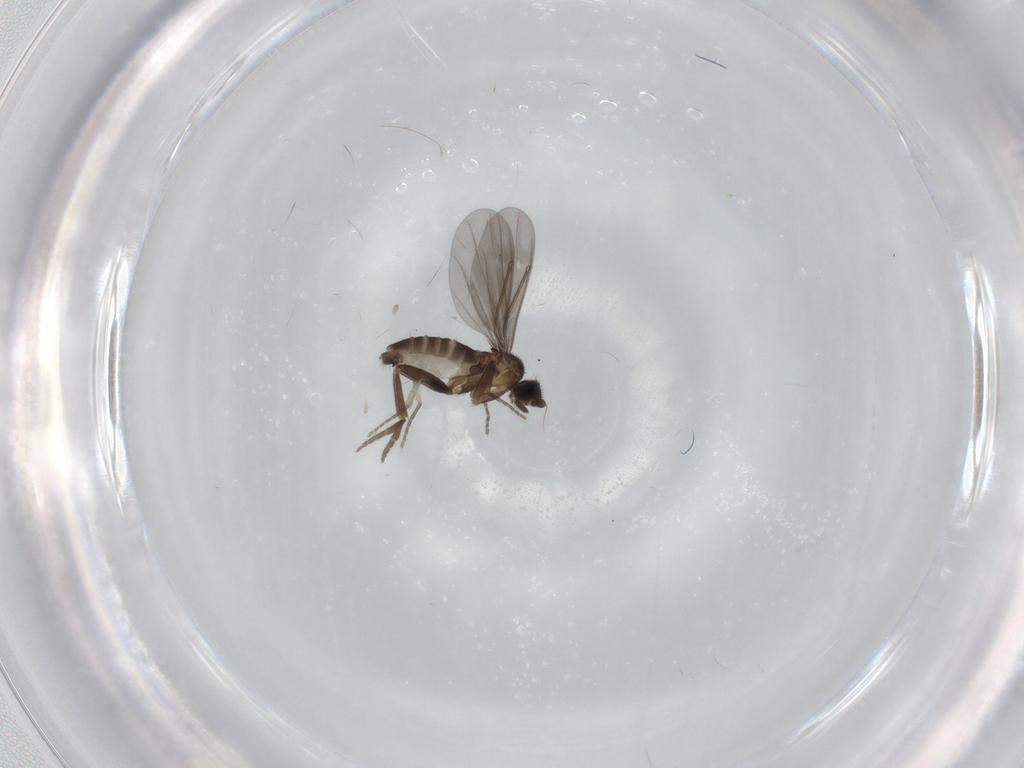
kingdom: Animalia
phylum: Arthropoda
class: Insecta
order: Diptera
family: Phoridae
